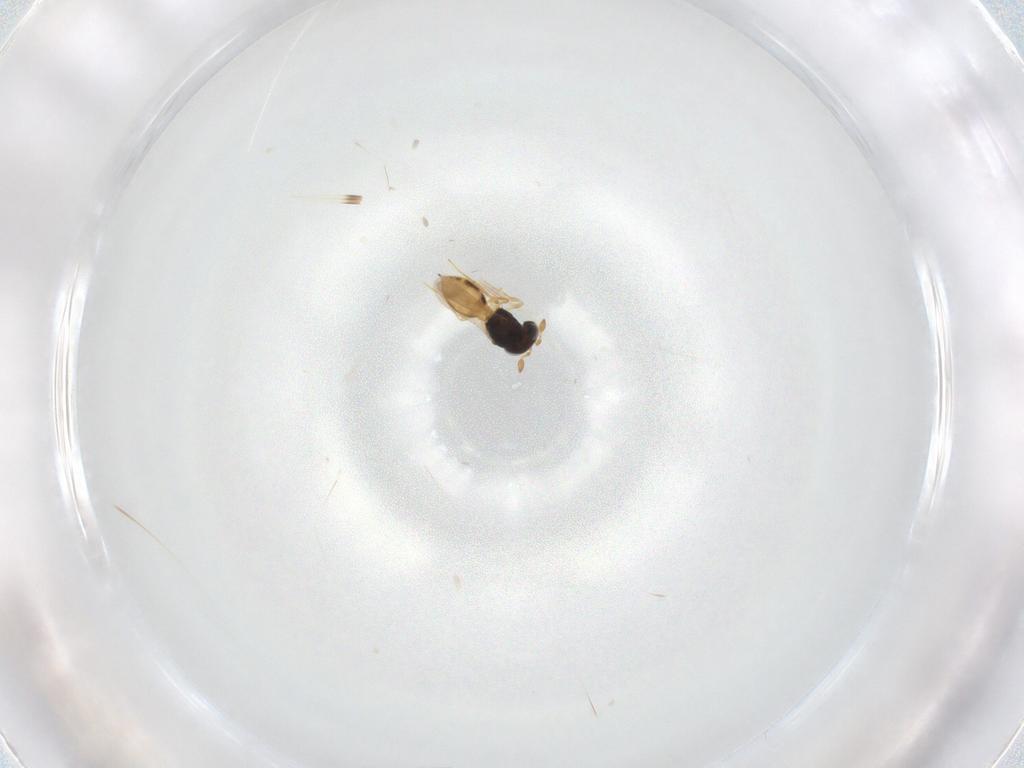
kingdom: Animalia
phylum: Arthropoda
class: Insecta
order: Hymenoptera
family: Scelionidae
